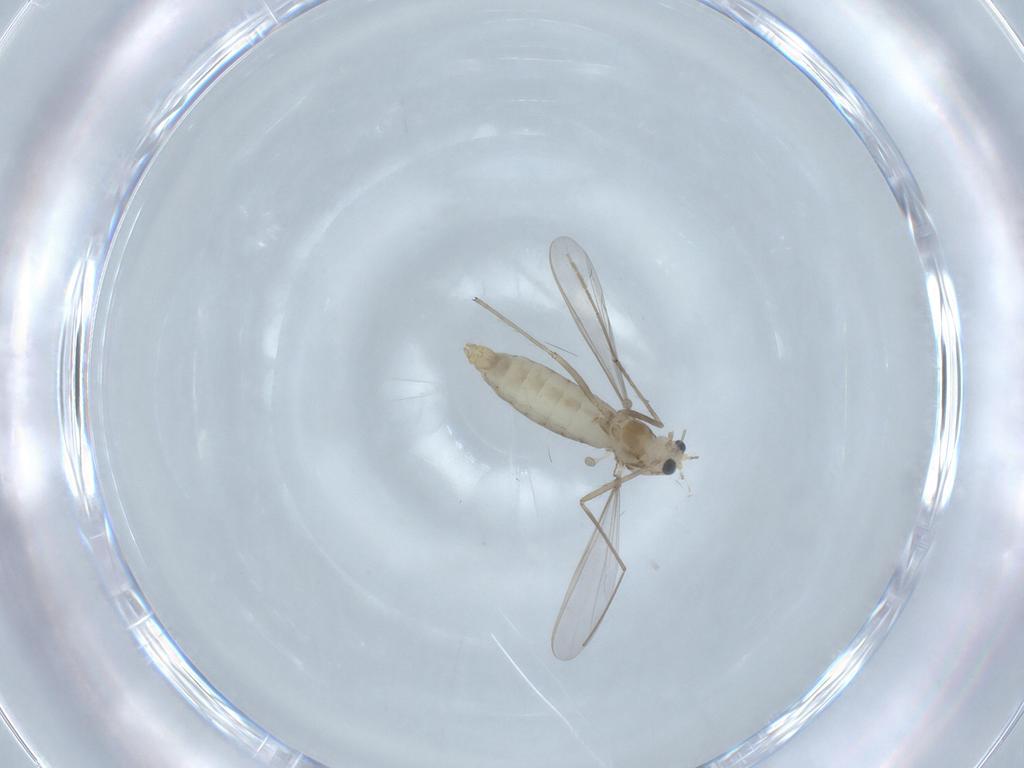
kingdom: Animalia
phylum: Arthropoda
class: Insecta
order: Diptera
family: Chironomidae
